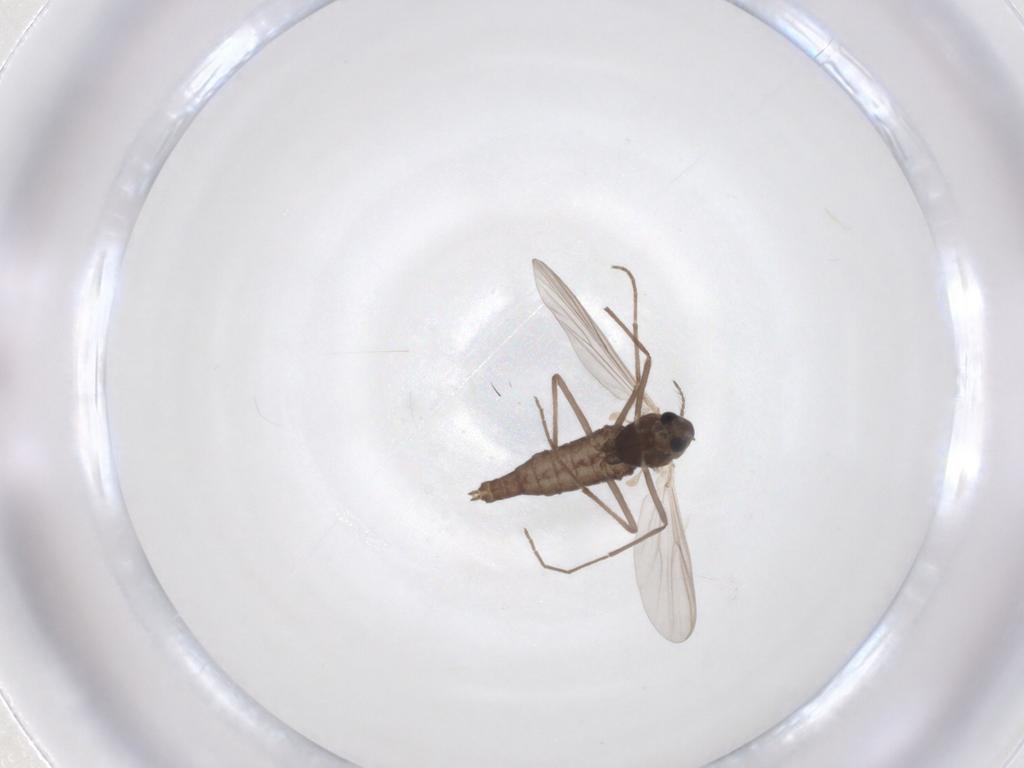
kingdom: Animalia
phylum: Arthropoda
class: Insecta
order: Diptera
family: Chironomidae
